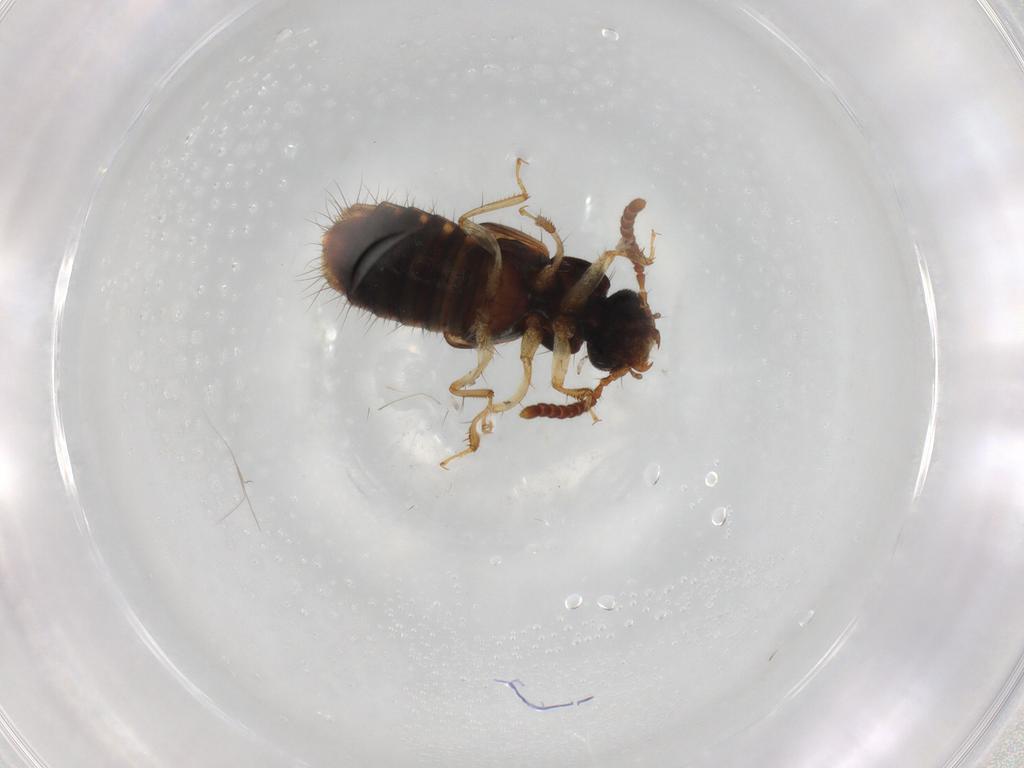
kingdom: Animalia
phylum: Arthropoda
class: Insecta
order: Coleoptera
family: Staphylinidae
